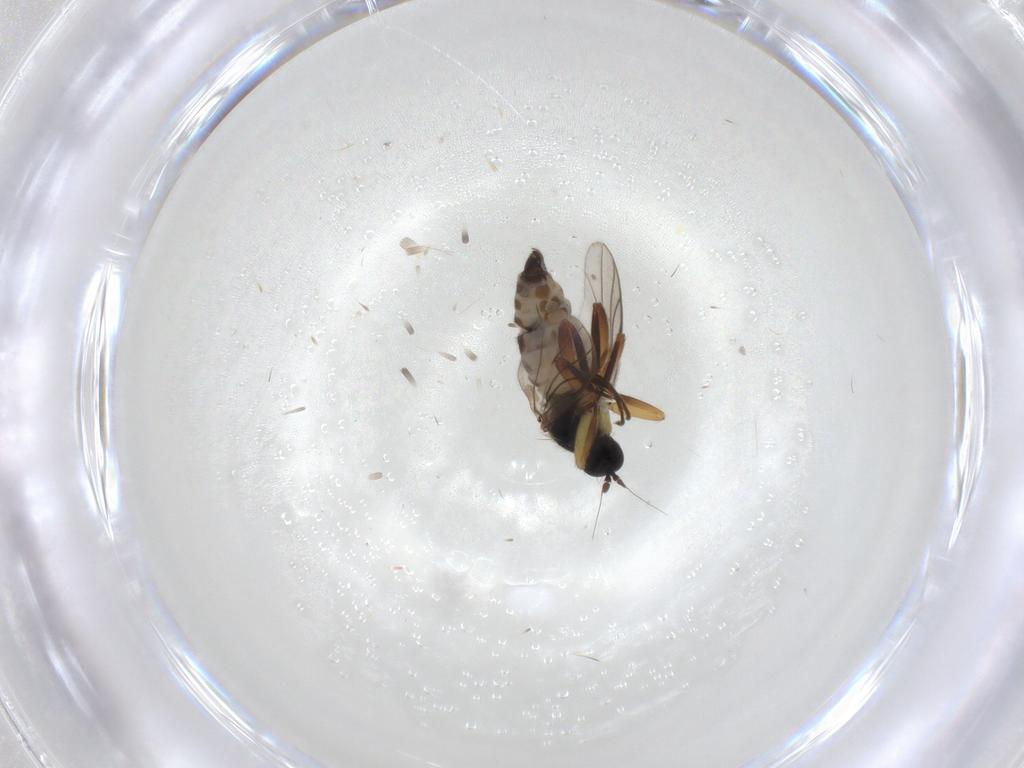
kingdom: Animalia
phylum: Arthropoda
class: Insecta
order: Diptera
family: Hybotidae
